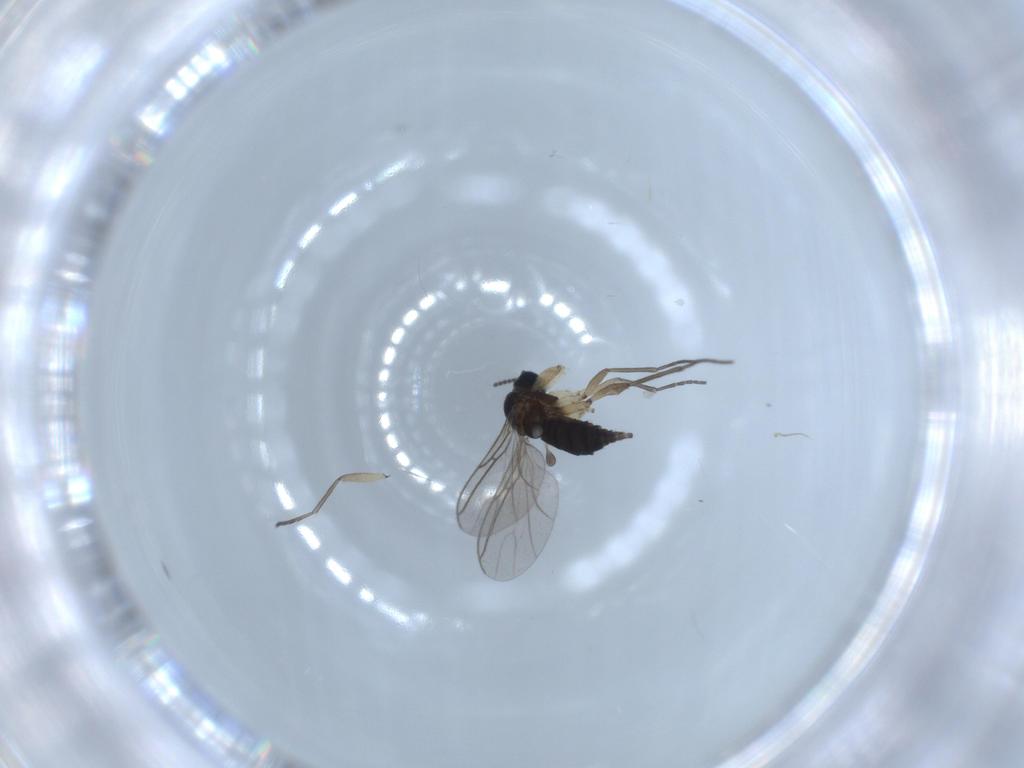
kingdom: Animalia
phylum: Arthropoda
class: Insecta
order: Diptera
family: Sciaridae
